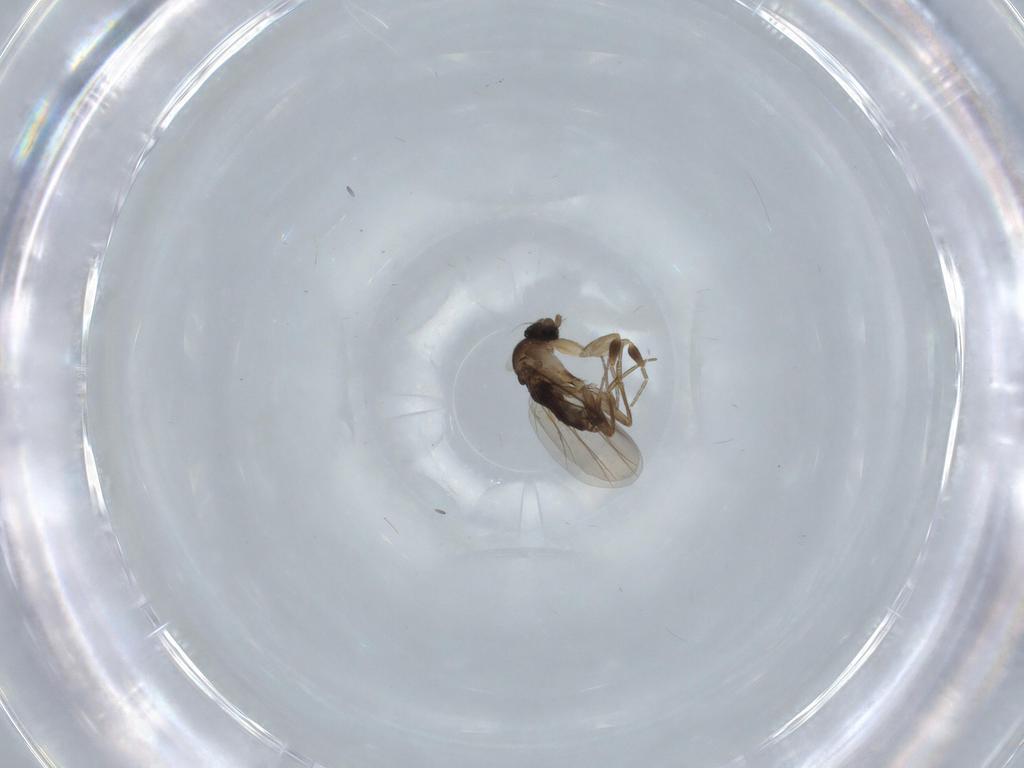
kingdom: Animalia
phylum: Arthropoda
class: Insecta
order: Diptera
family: Phoridae
